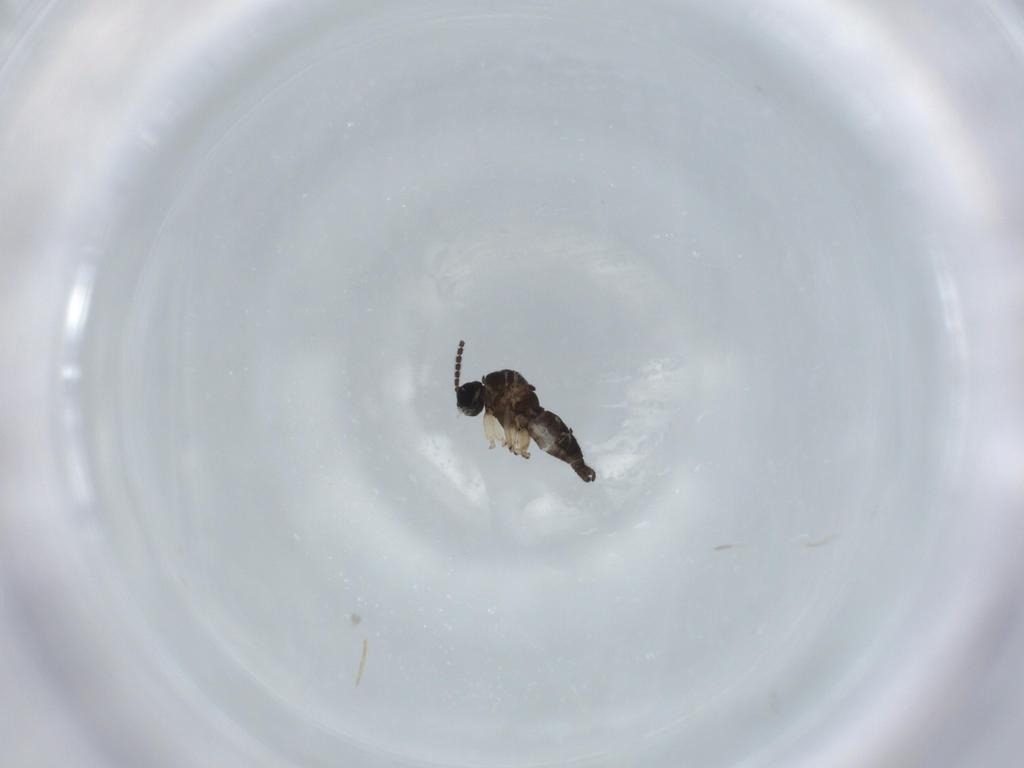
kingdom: Animalia
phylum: Arthropoda
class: Insecta
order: Diptera
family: Sciaridae
